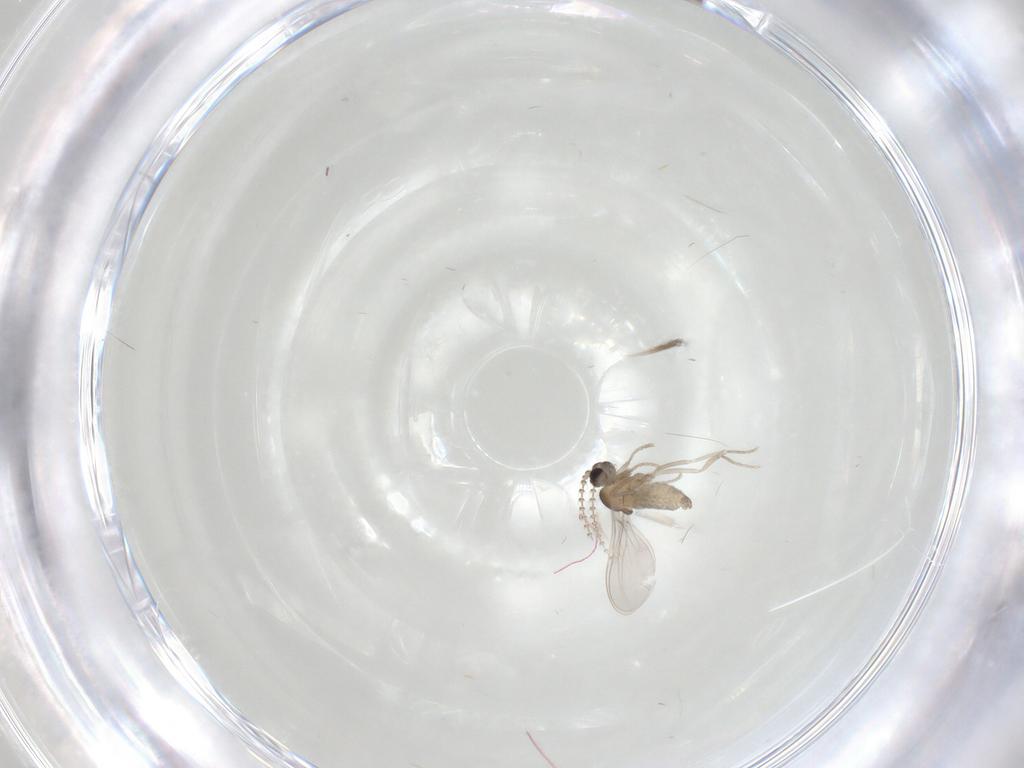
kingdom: Animalia
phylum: Arthropoda
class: Insecta
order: Diptera
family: Cecidomyiidae
